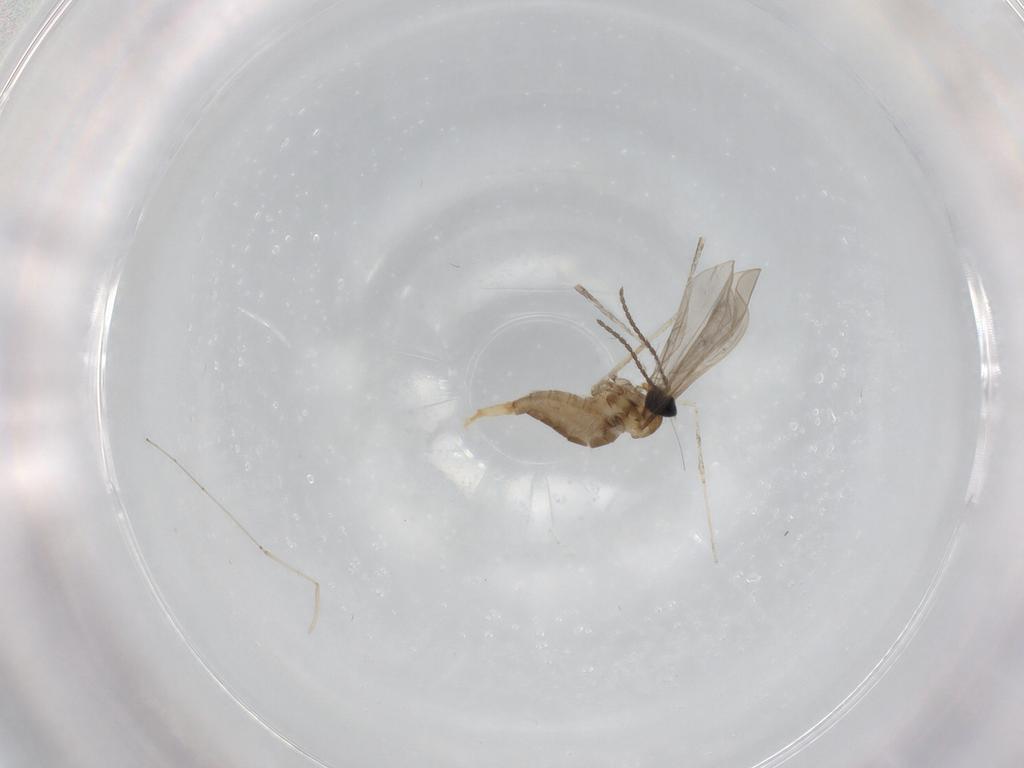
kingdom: Animalia
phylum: Arthropoda
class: Insecta
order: Diptera
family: Cecidomyiidae
